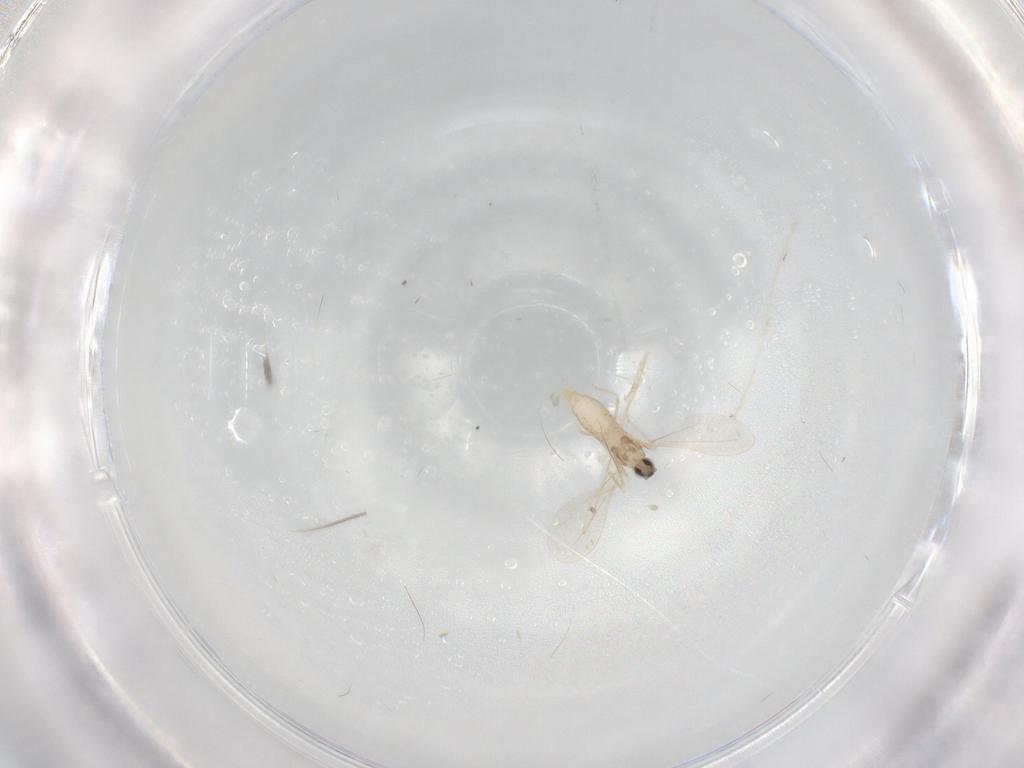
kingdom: Animalia
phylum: Arthropoda
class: Insecta
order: Diptera
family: Cecidomyiidae
